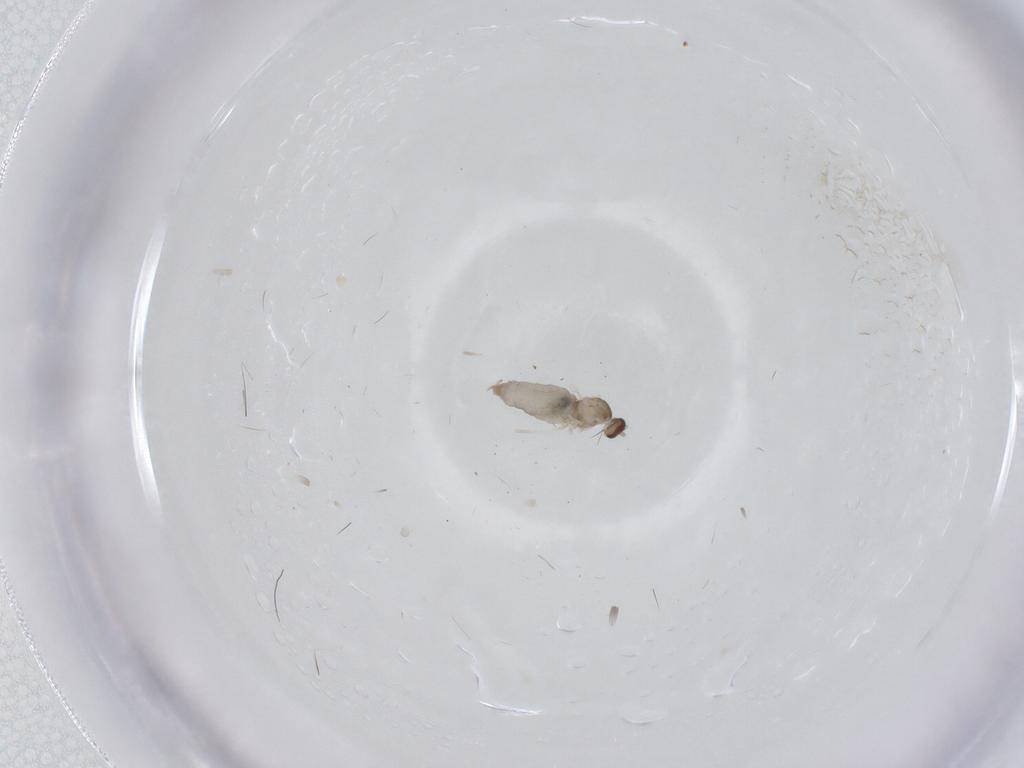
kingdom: Animalia
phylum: Arthropoda
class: Insecta
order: Diptera
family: Cecidomyiidae
